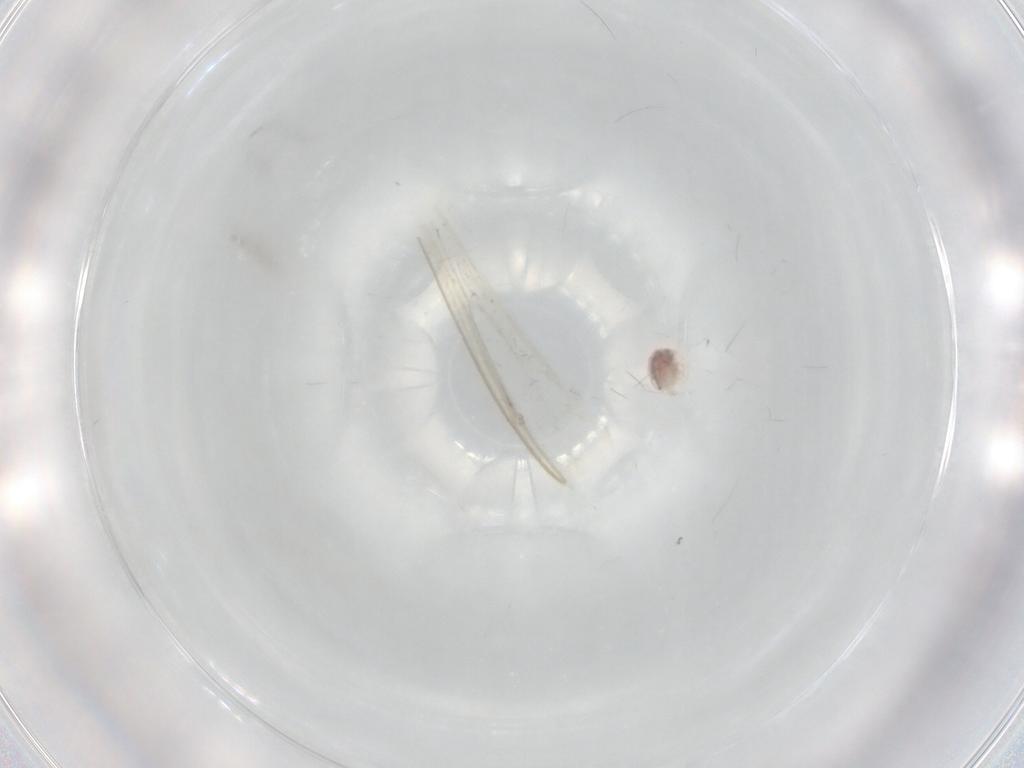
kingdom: Animalia
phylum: Arthropoda
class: Arachnida
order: Trombidiformes
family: Hygrobatidae
